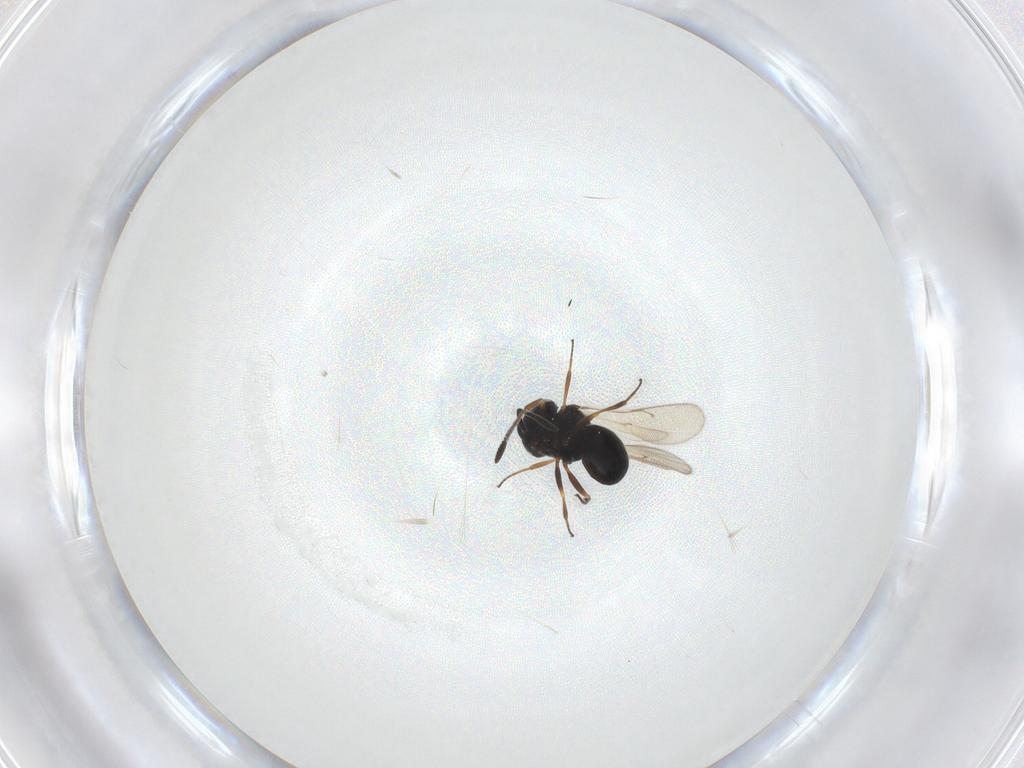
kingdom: Animalia
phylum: Arthropoda
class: Insecta
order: Hymenoptera
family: Scelionidae
